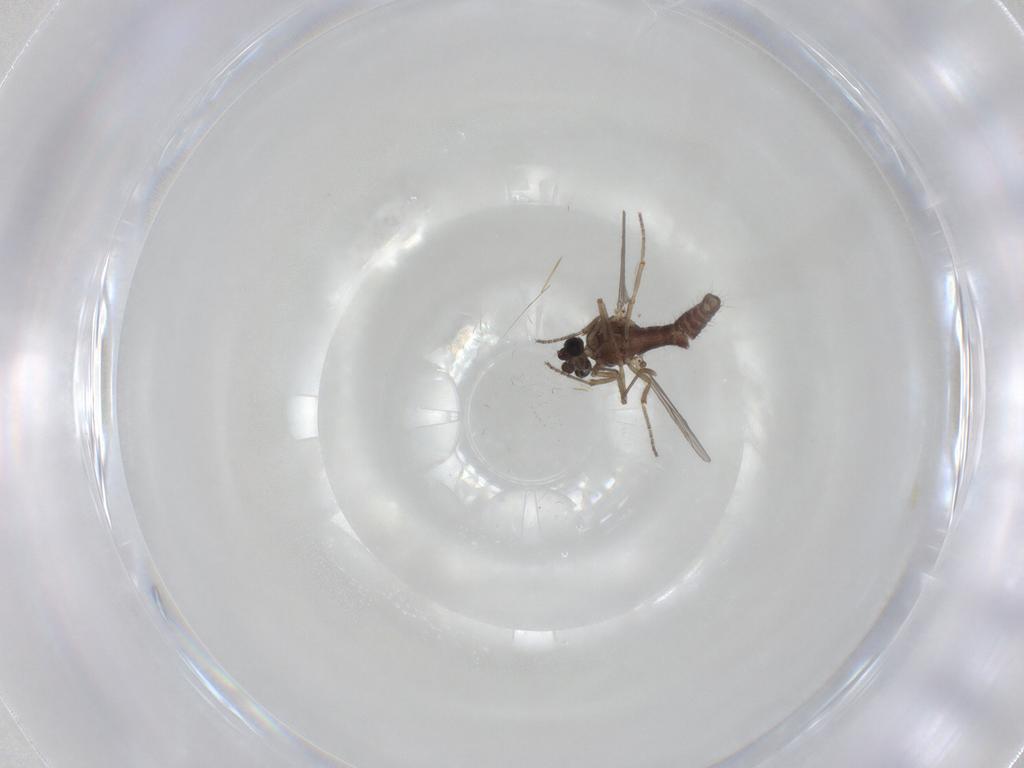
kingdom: Animalia
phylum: Arthropoda
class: Insecta
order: Diptera
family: Ceratopogonidae
